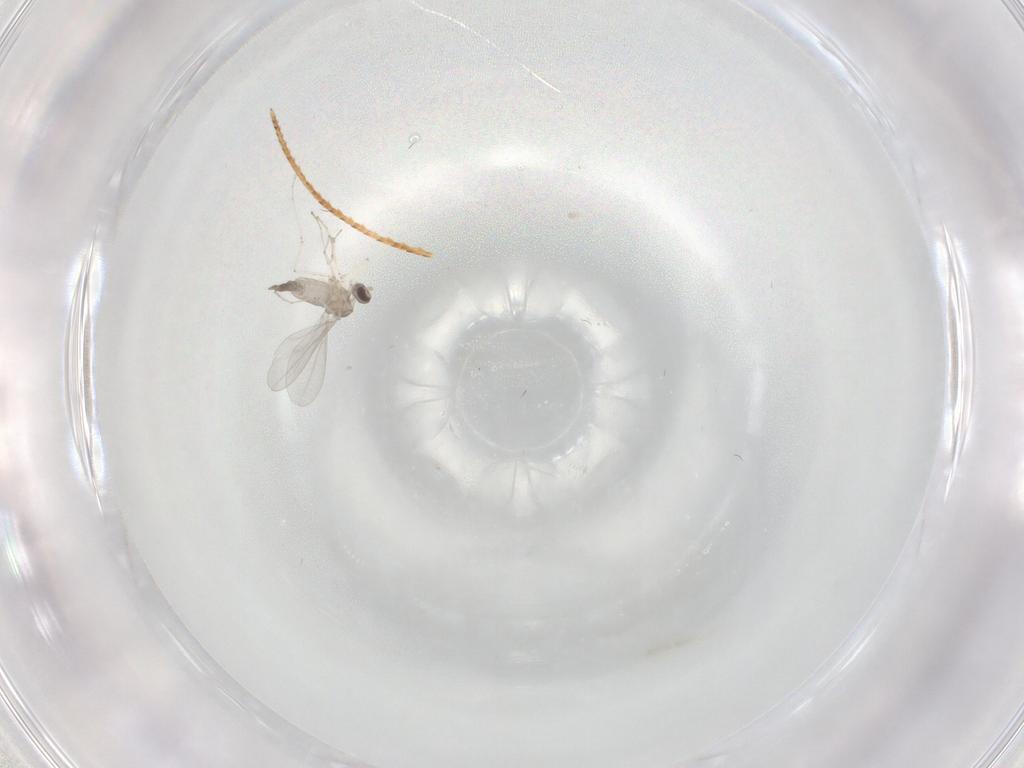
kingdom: Animalia
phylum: Arthropoda
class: Insecta
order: Diptera
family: Cecidomyiidae
